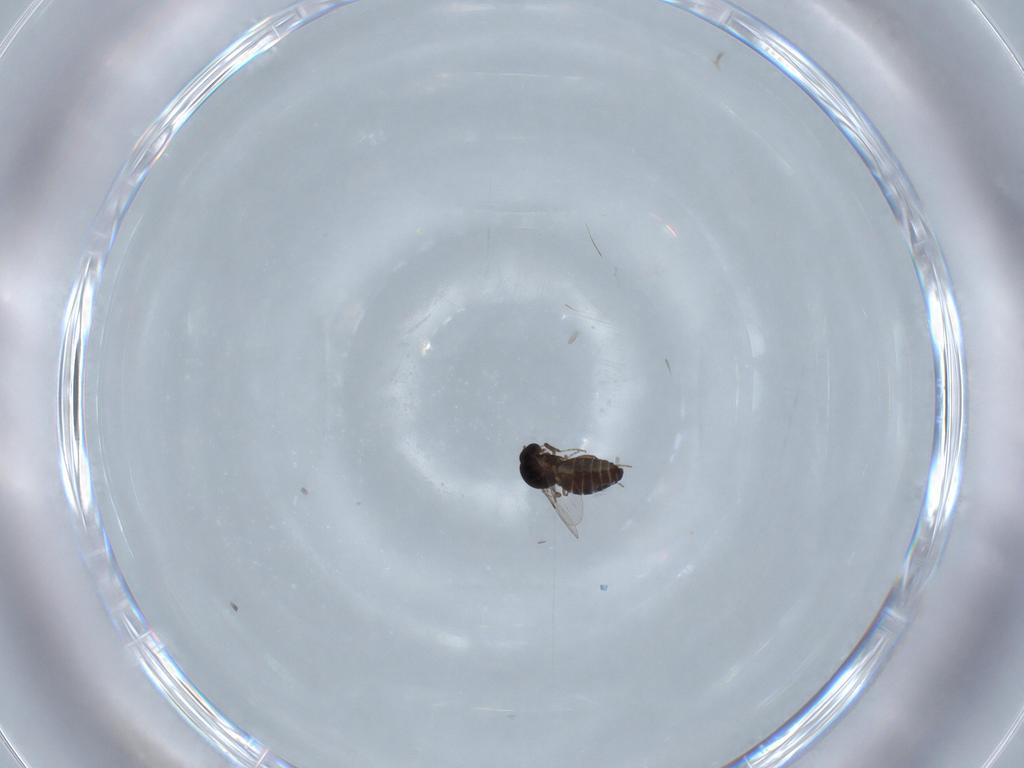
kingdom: Animalia
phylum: Arthropoda
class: Insecta
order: Diptera
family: Ceratopogonidae
